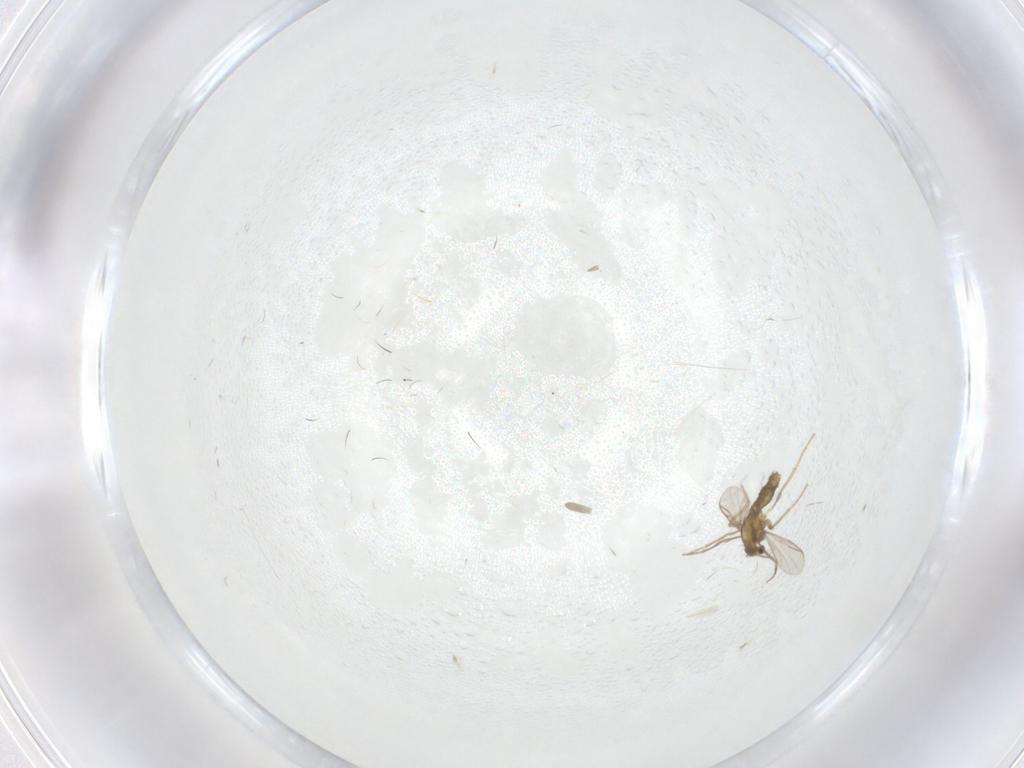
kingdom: Animalia
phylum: Arthropoda
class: Insecta
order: Diptera
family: Chironomidae
